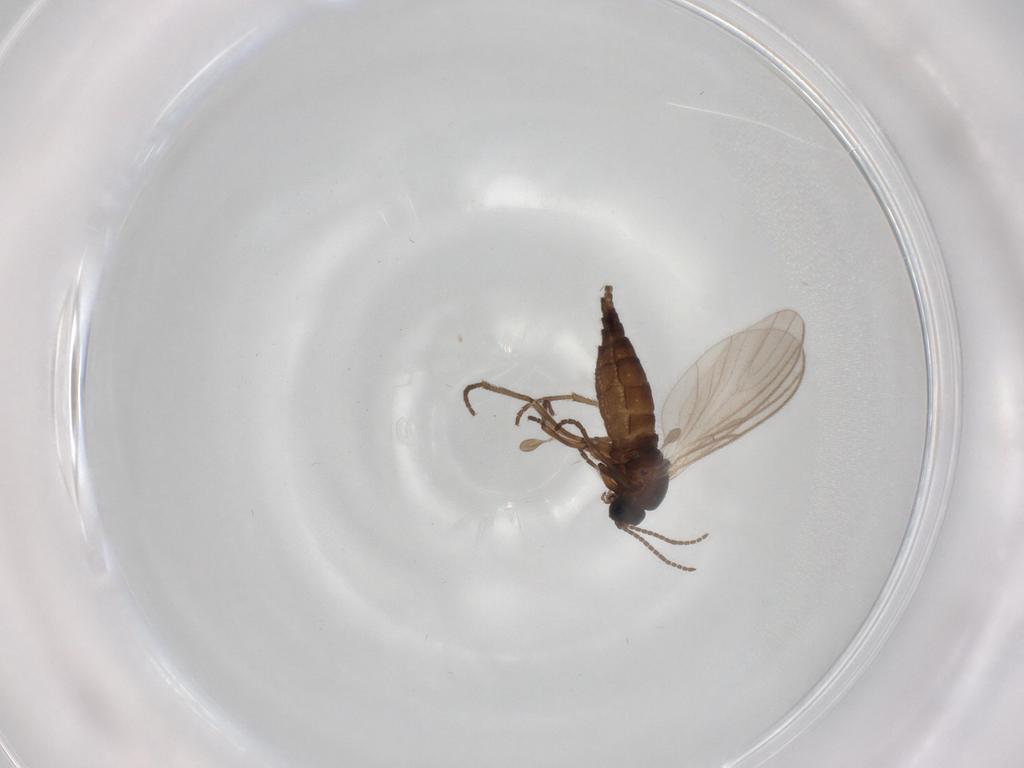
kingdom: Animalia
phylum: Arthropoda
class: Insecta
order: Diptera
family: Sciaridae
